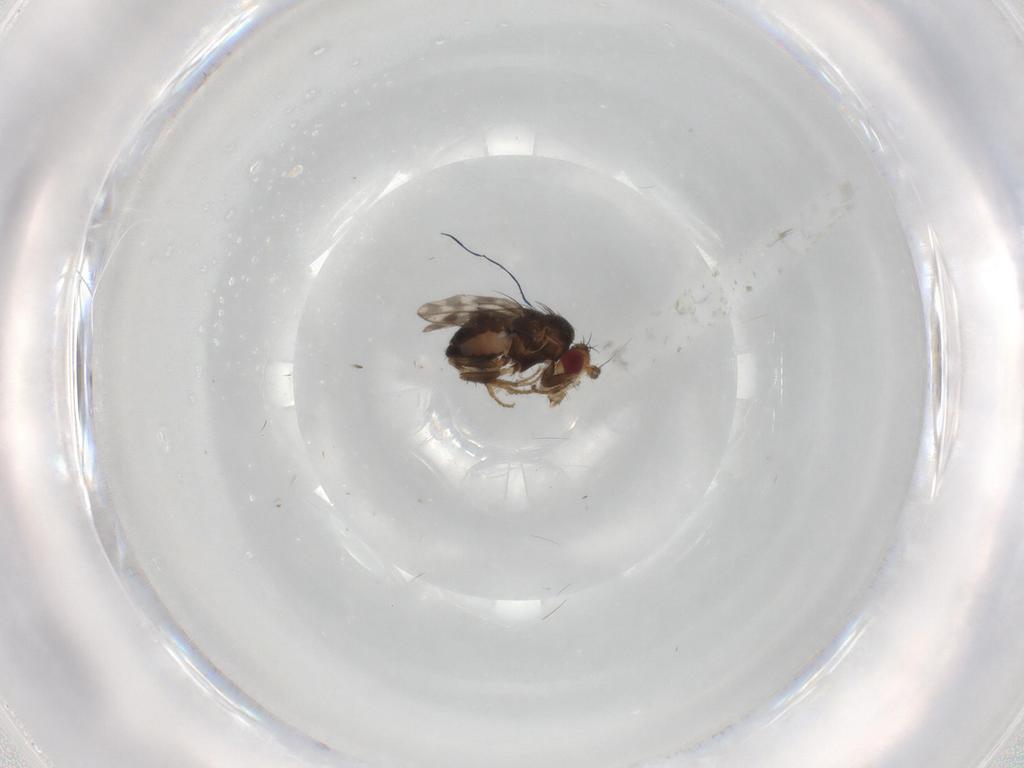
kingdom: Animalia
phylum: Arthropoda
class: Insecta
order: Diptera
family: Sphaeroceridae
